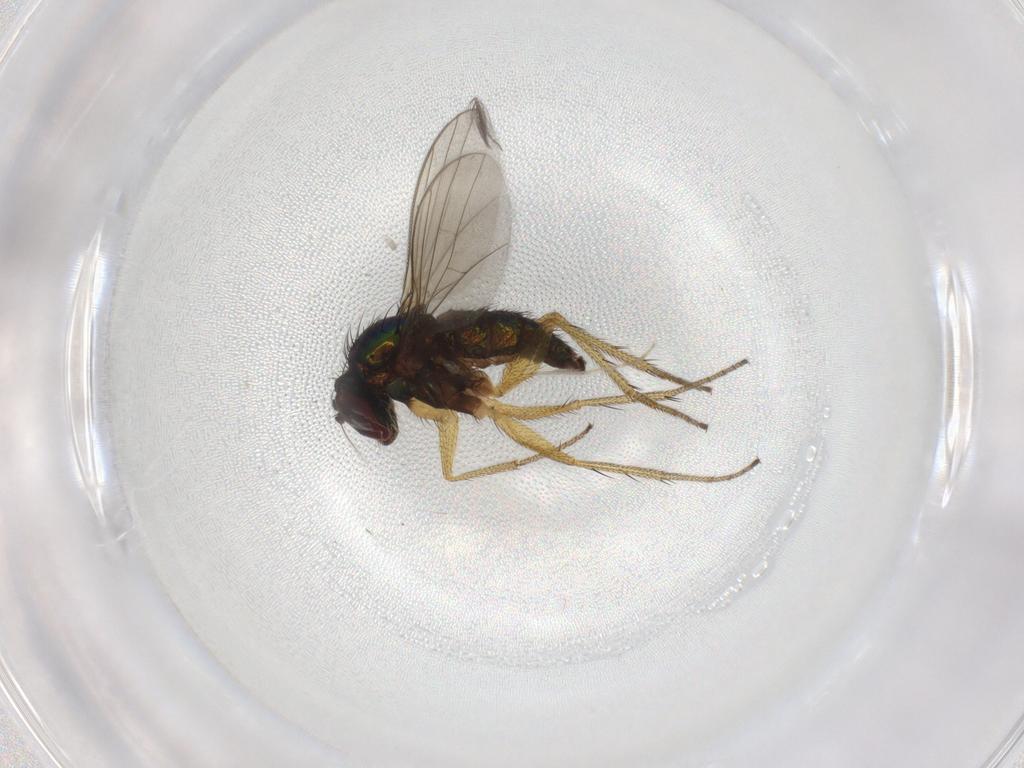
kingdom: Animalia
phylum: Arthropoda
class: Insecta
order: Diptera
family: Dolichopodidae
